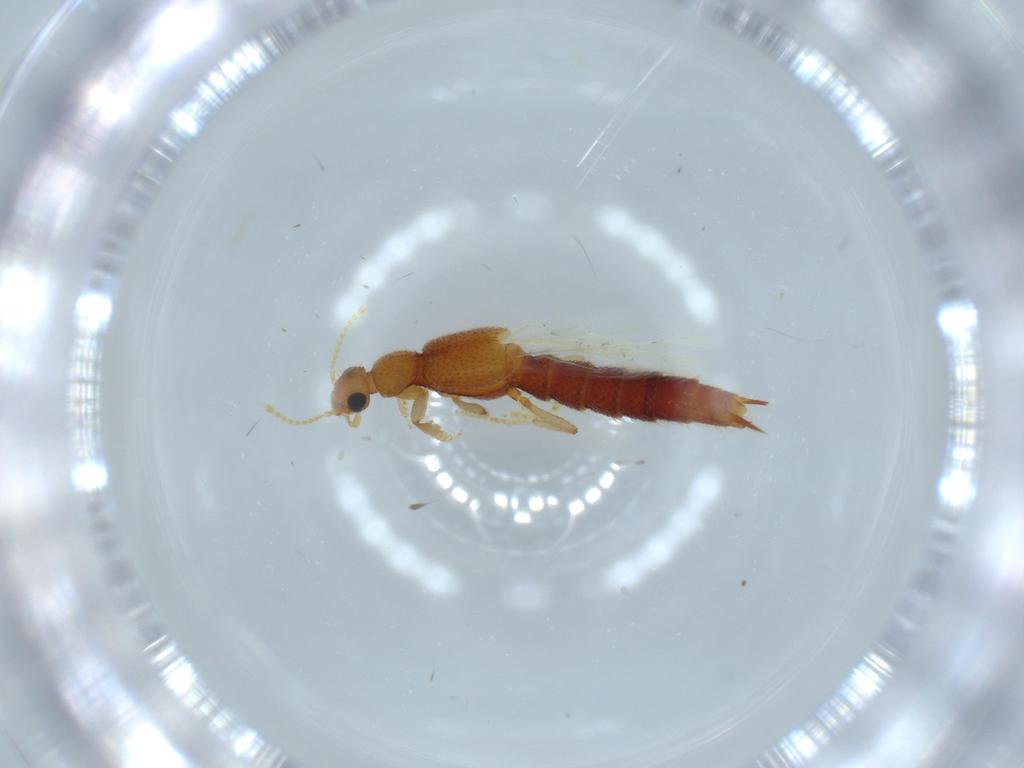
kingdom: Animalia
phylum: Arthropoda
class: Insecta
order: Coleoptera
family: Staphylinidae
